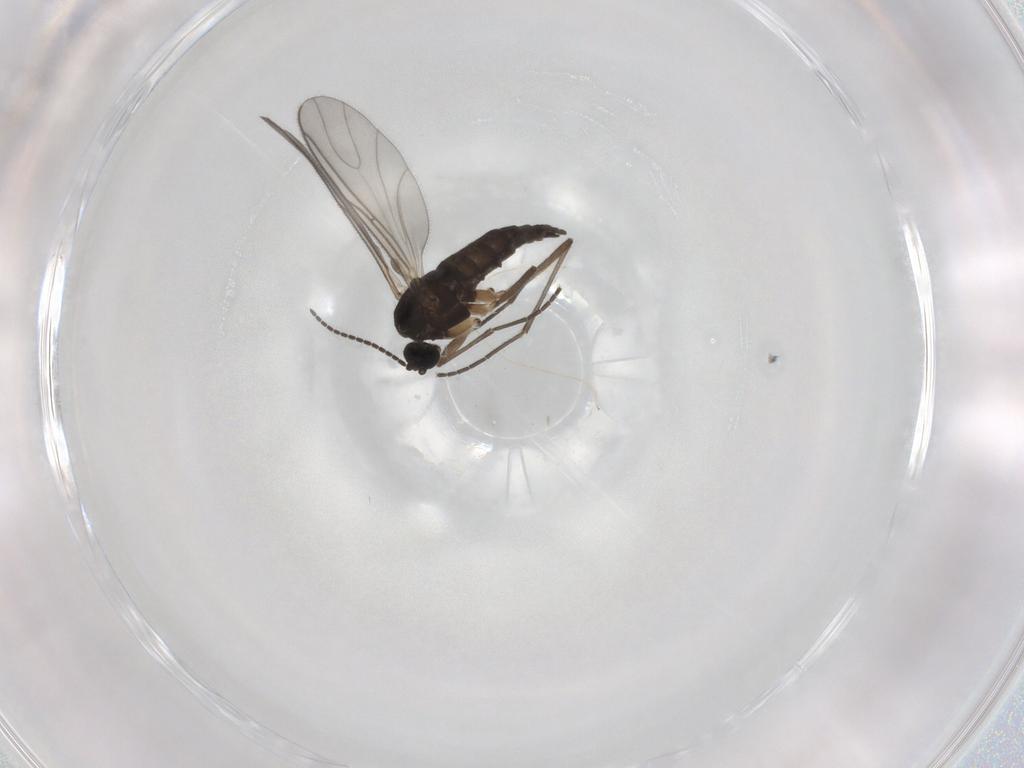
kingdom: Animalia
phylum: Arthropoda
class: Insecta
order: Diptera
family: Sciaridae
